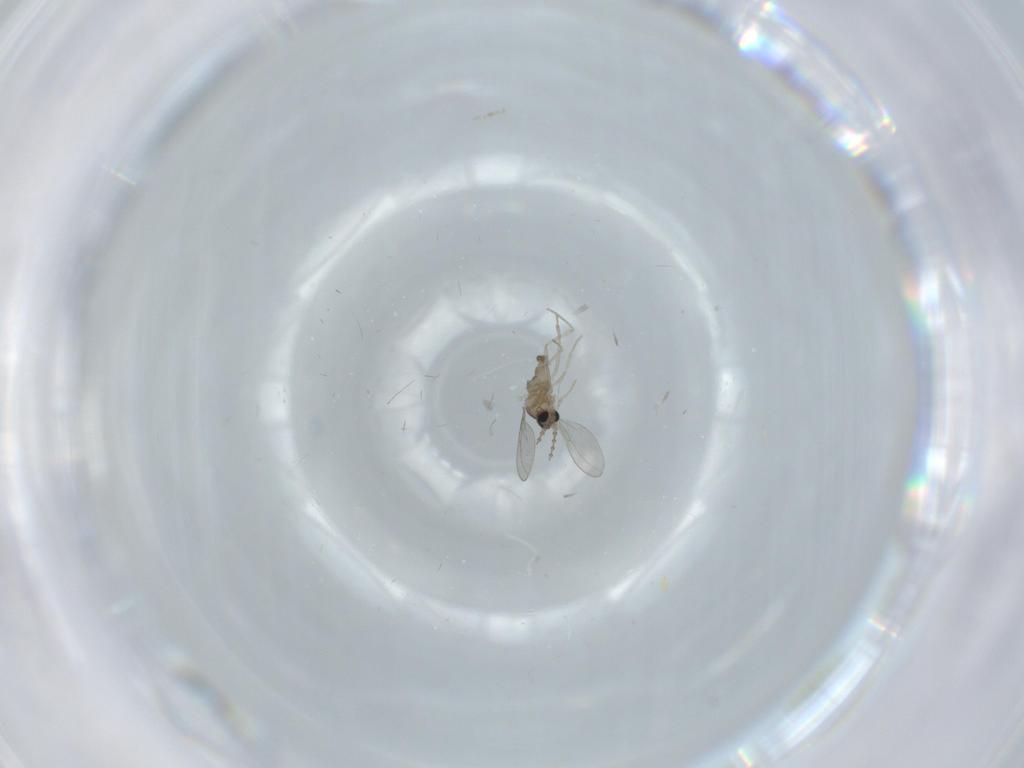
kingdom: Animalia
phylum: Arthropoda
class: Insecta
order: Diptera
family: Cecidomyiidae
